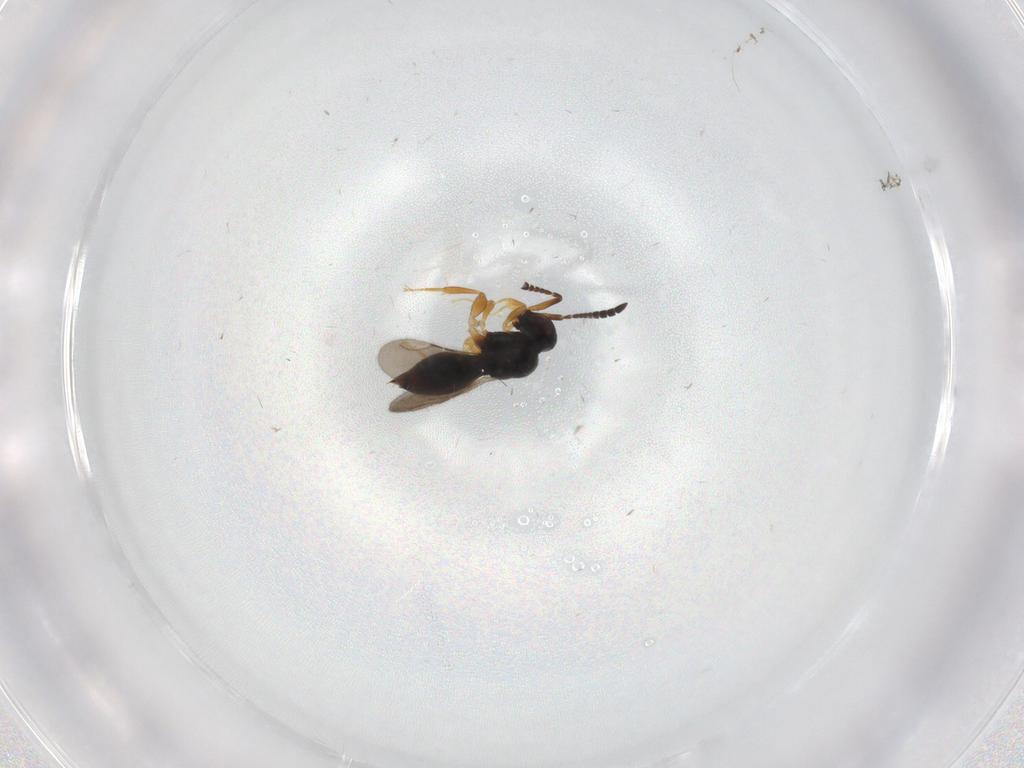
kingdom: Animalia
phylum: Arthropoda
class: Insecta
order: Hymenoptera
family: Ceraphronidae
